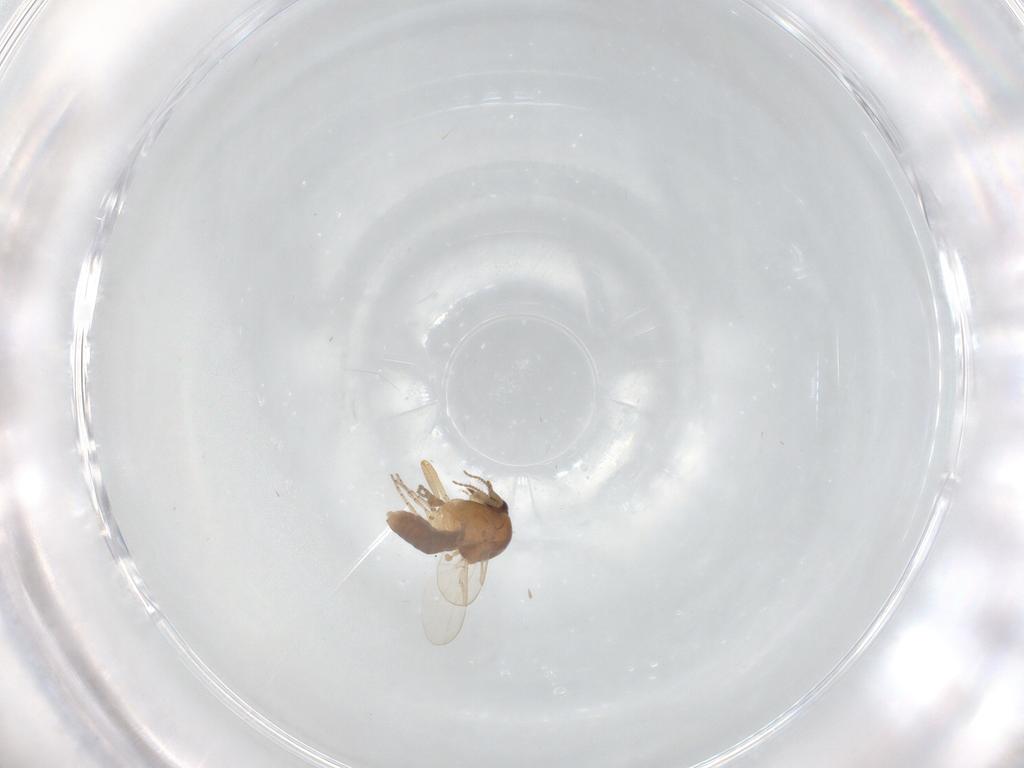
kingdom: Animalia
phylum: Arthropoda
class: Insecta
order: Diptera
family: Ceratopogonidae
